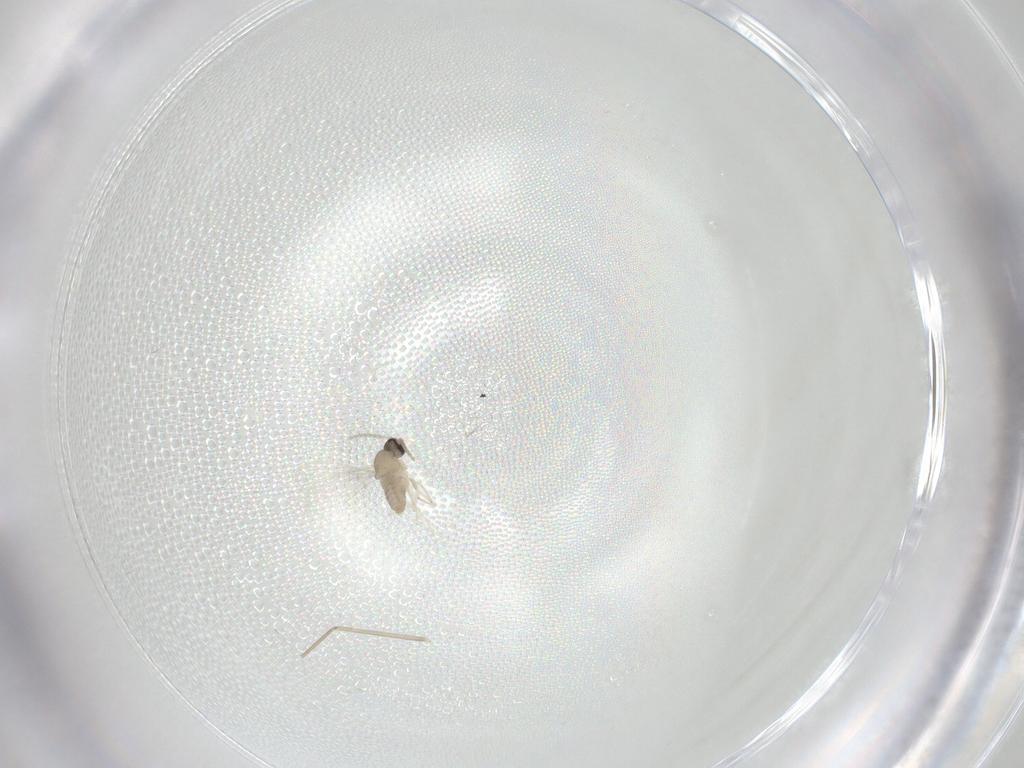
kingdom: Animalia
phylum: Arthropoda
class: Insecta
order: Diptera
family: Cecidomyiidae
